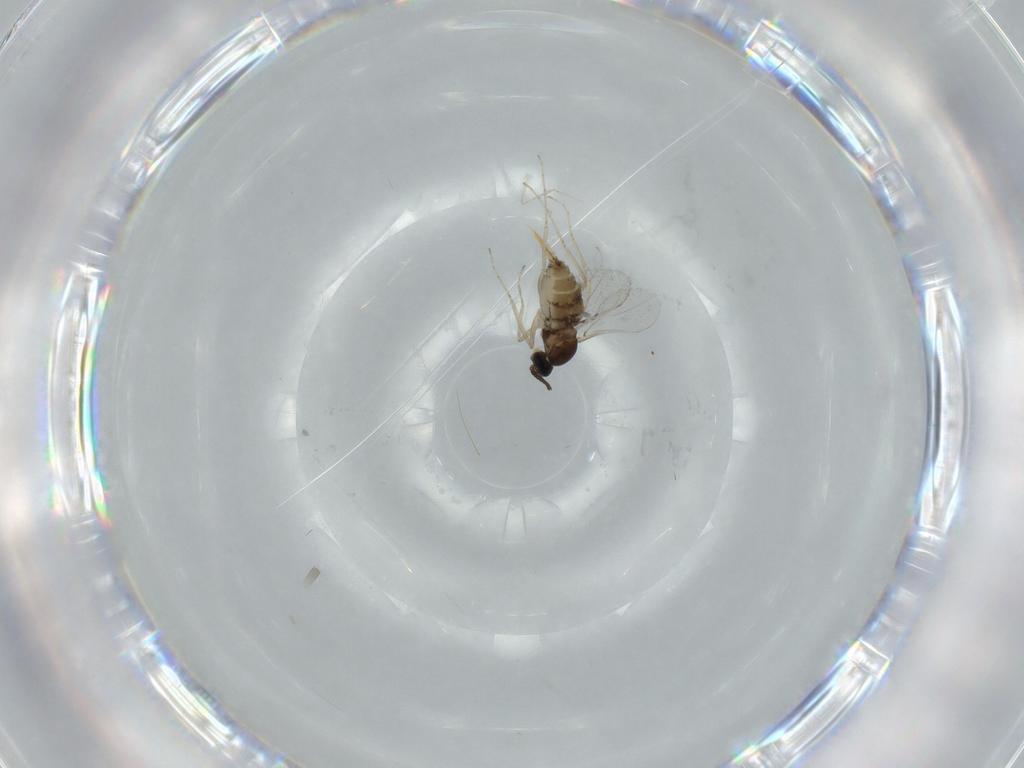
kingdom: Animalia
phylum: Arthropoda
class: Insecta
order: Diptera
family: Cecidomyiidae
